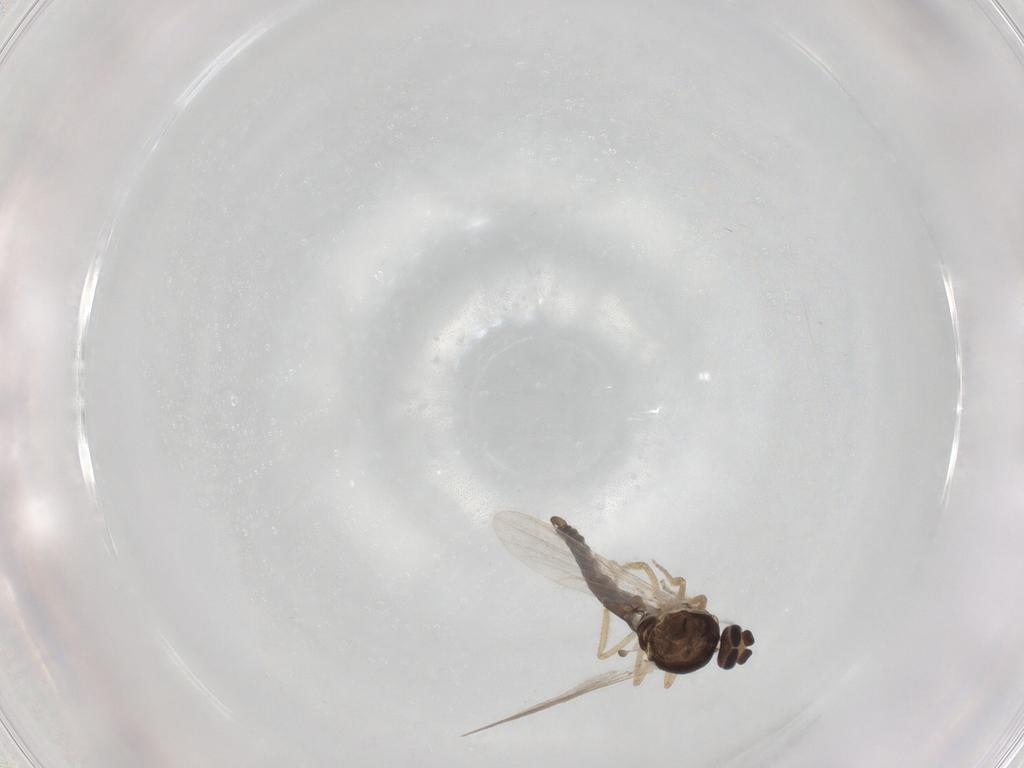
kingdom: Animalia
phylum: Arthropoda
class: Insecta
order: Diptera
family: Ceratopogonidae
